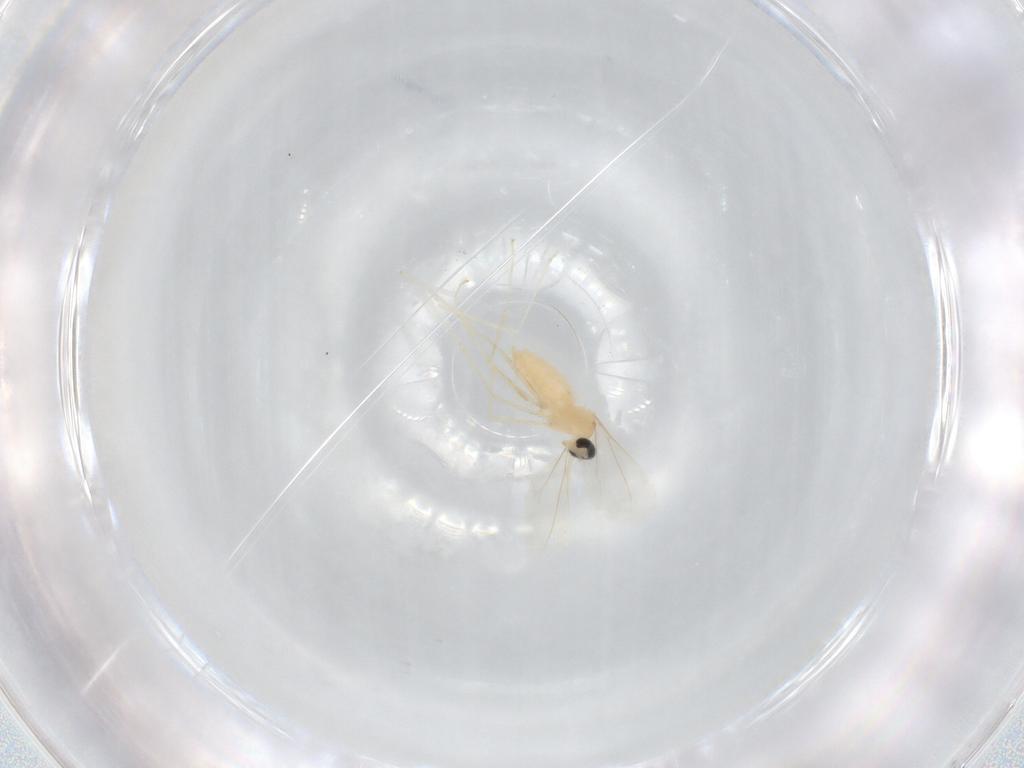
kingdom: Animalia
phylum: Arthropoda
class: Insecta
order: Diptera
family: Cecidomyiidae
